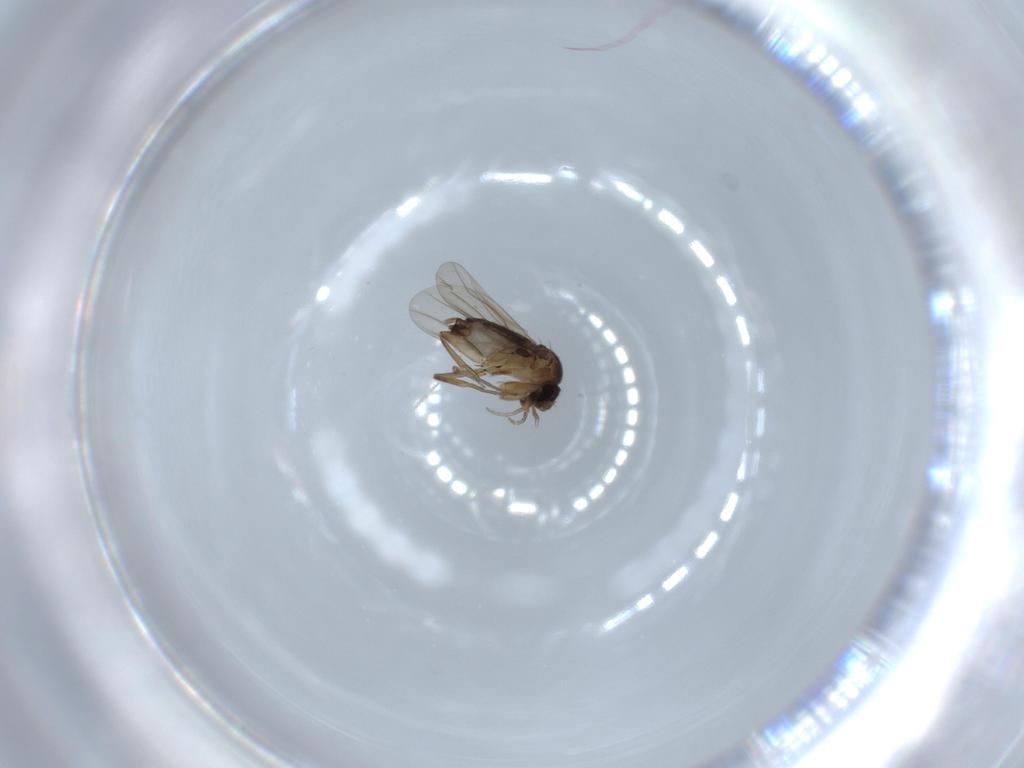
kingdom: Animalia
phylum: Arthropoda
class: Insecta
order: Diptera
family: Phoridae
